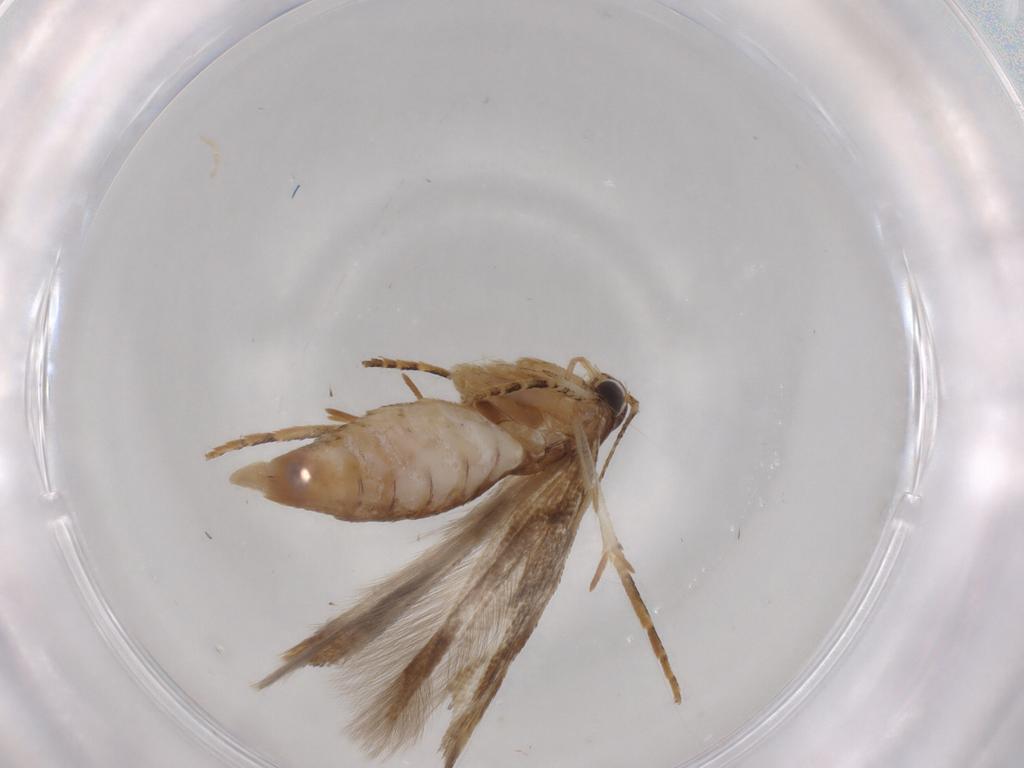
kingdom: Animalia
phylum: Arthropoda
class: Insecta
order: Lepidoptera
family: Gelechiidae
